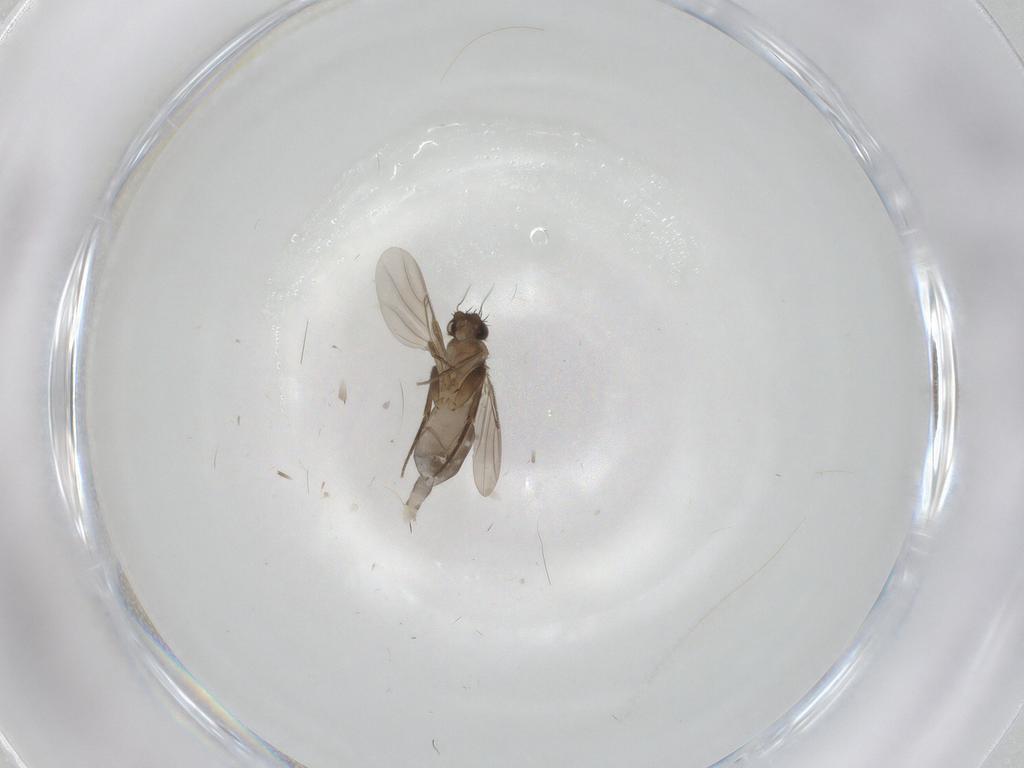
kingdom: Animalia
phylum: Arthropoda
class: Insecta
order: Diptera
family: Phoridae
